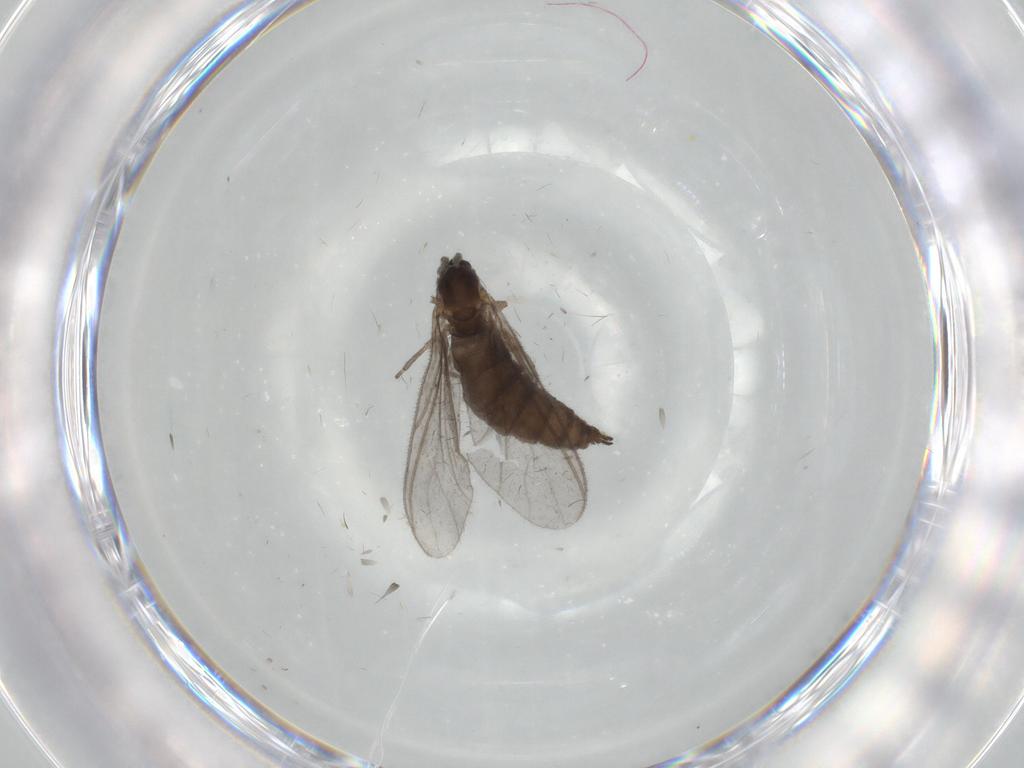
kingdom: Animalia
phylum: Arthropoda
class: Insecta
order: Diptera
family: Sciaridae
